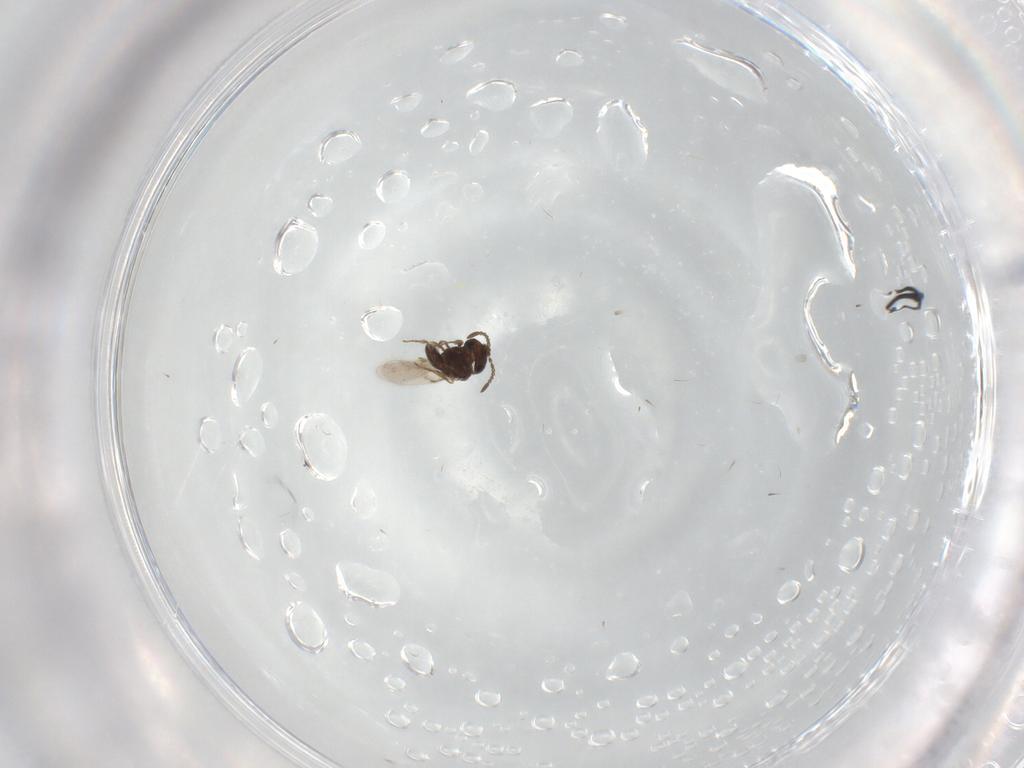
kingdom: Animalia
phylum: Arthropoda
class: Insecta
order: Hymenoptera
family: Scelionidae
